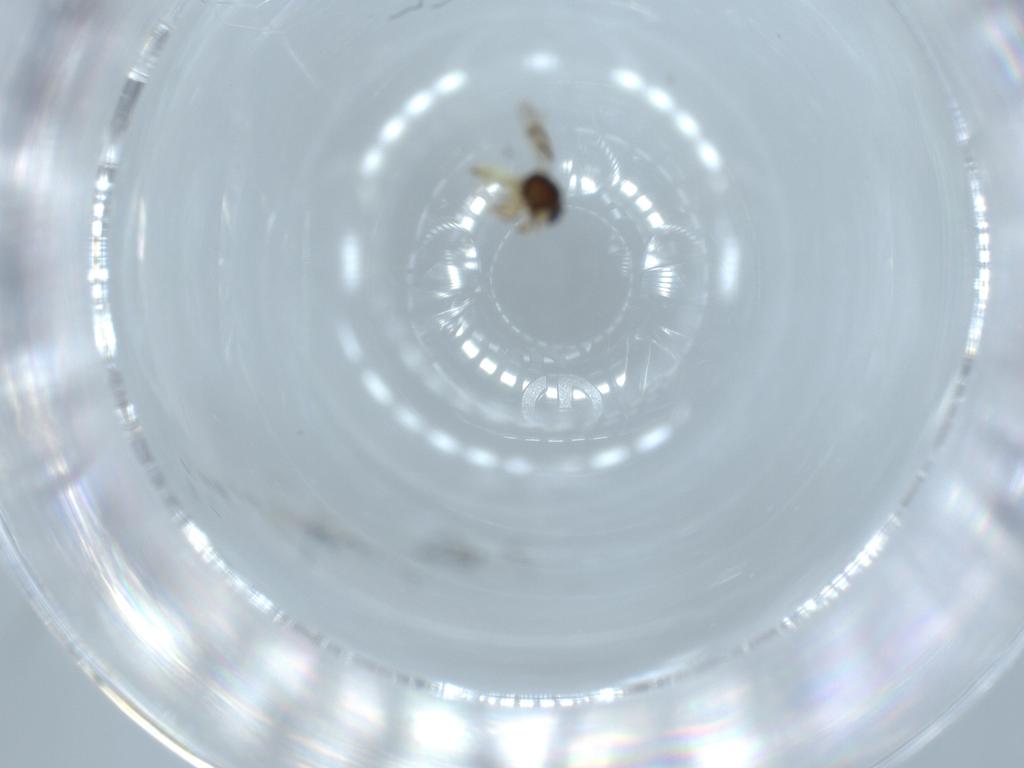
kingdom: Animalia
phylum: Arthropoda
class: Insecta
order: Hymenoptera
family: Scelionidae
